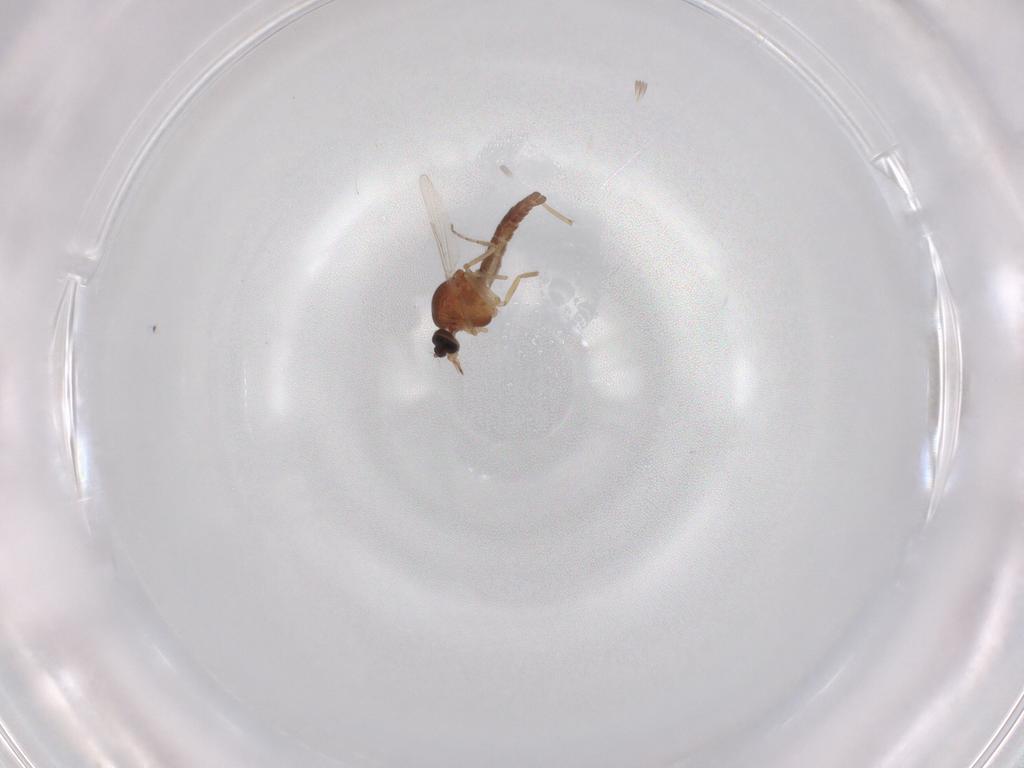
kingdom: Animalia
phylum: Arthropoda
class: Insecta
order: Diptera
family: Ceratopogonidae
